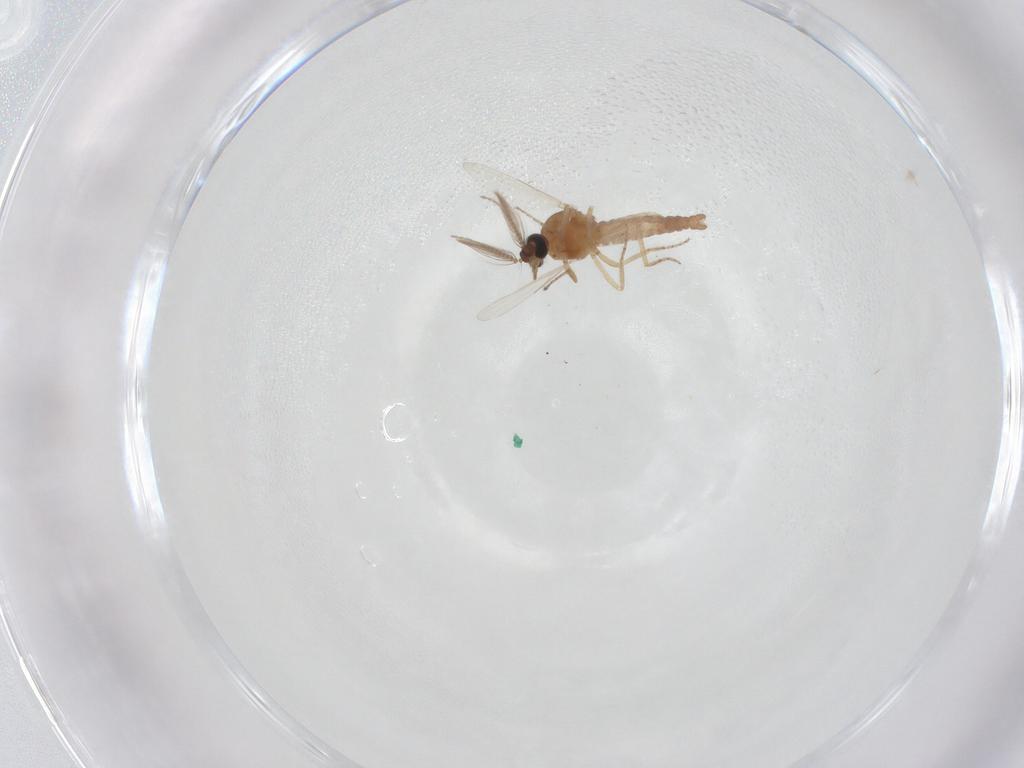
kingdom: Animalia
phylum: Arthropoda
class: Insecta
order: Diptera
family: Ceratopogonidae
